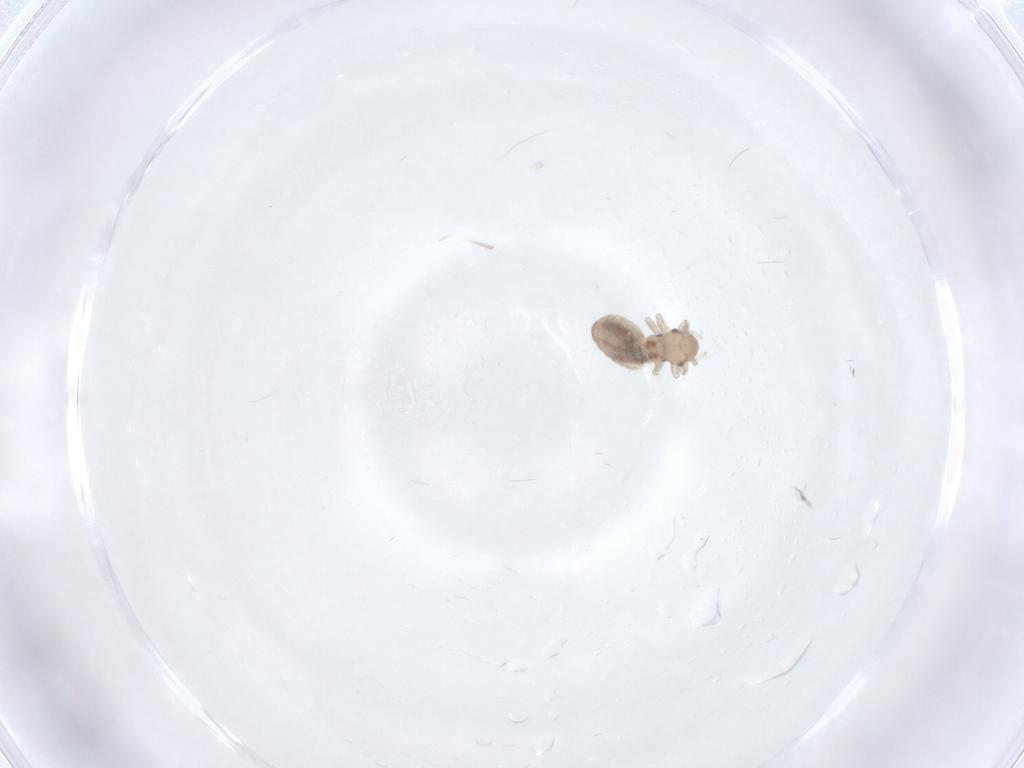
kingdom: Animalia
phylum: Arthropoda
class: Insecta
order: Psocodea
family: Peripsocidae
